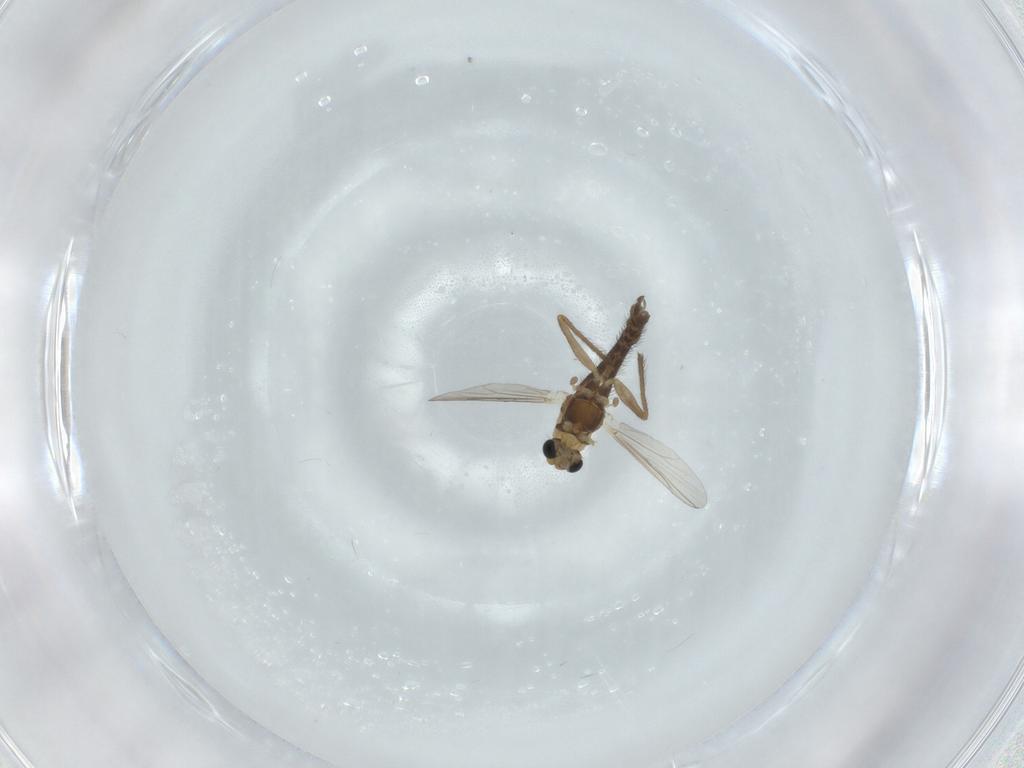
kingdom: Animalia
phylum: Arthropoda
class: Insecta
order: Diptera
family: Chironomidae
